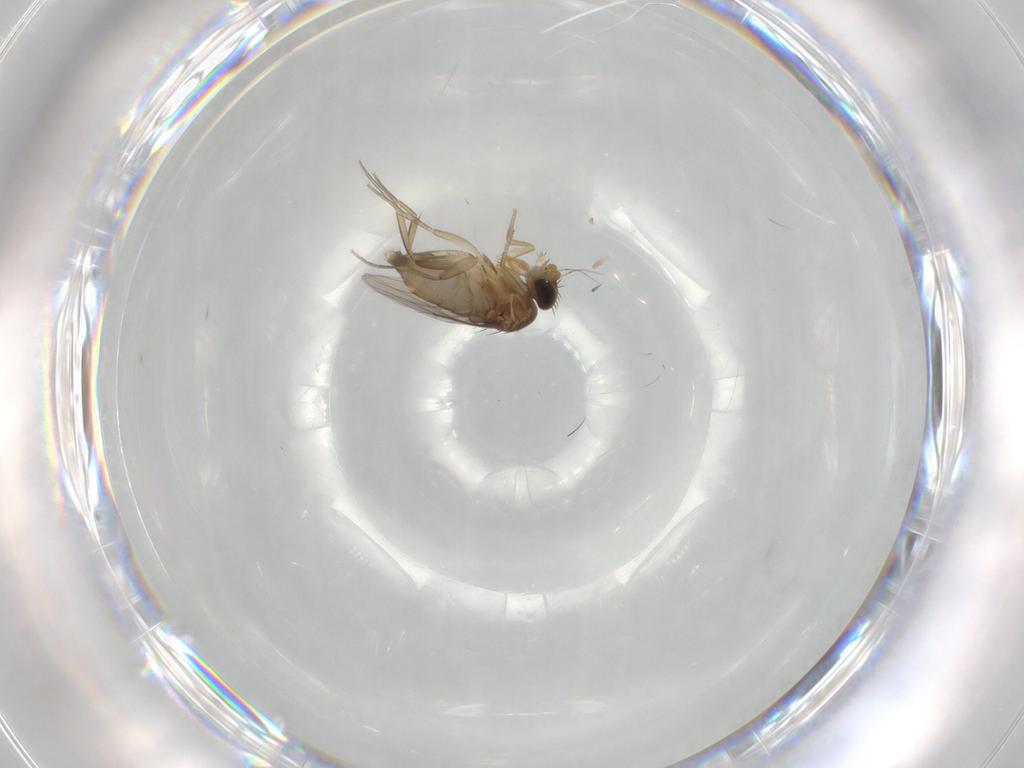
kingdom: Animalia
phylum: Arthropoda
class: Insecta
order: Diptera
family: Phoridae
